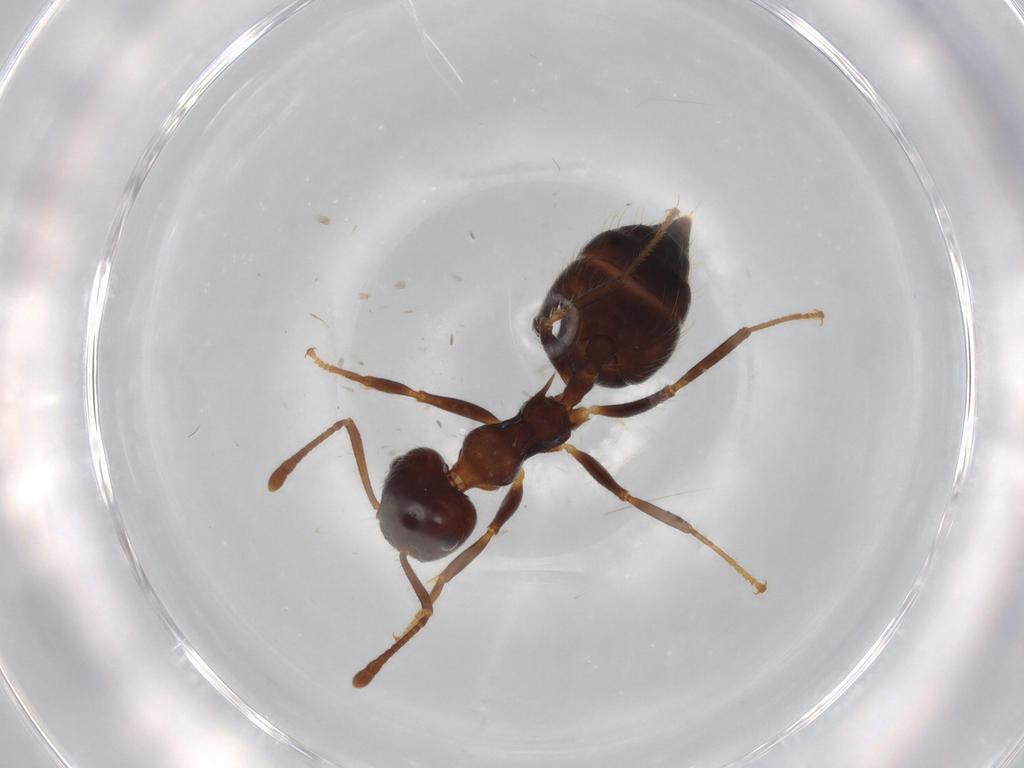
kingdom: Animalia
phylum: Arthropoda
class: Insecta
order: Hymenoptera
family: Formicidae
